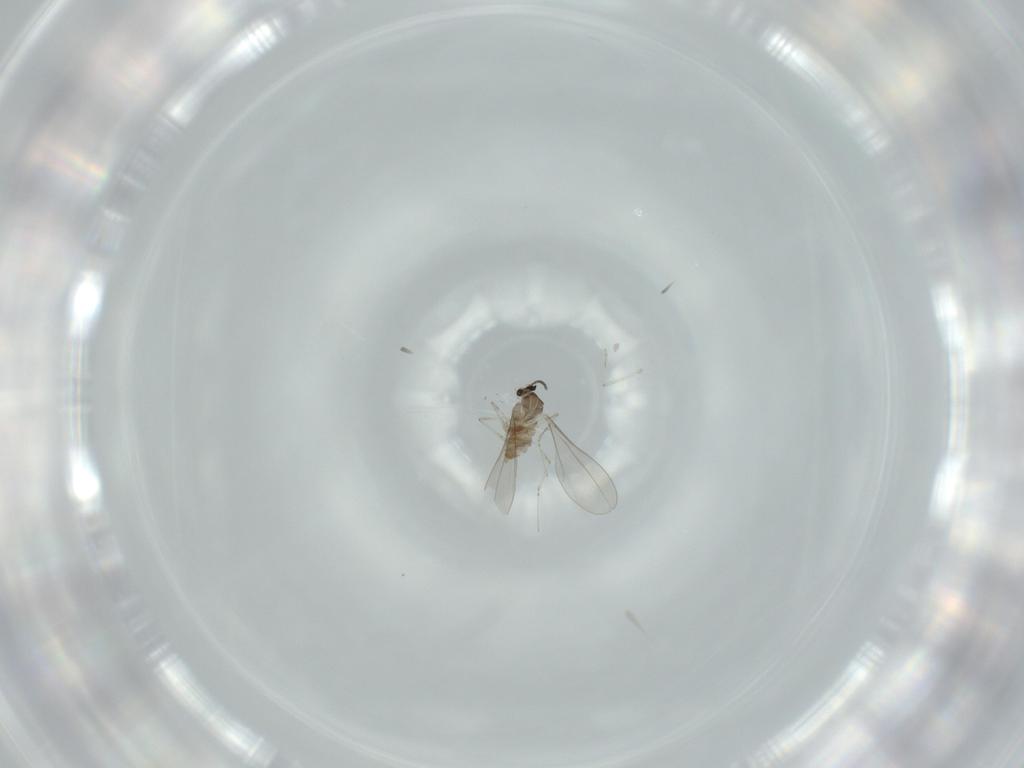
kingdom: Animalia
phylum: Arthropoda
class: Insecta
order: Diptera
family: Cecidomyiidae
